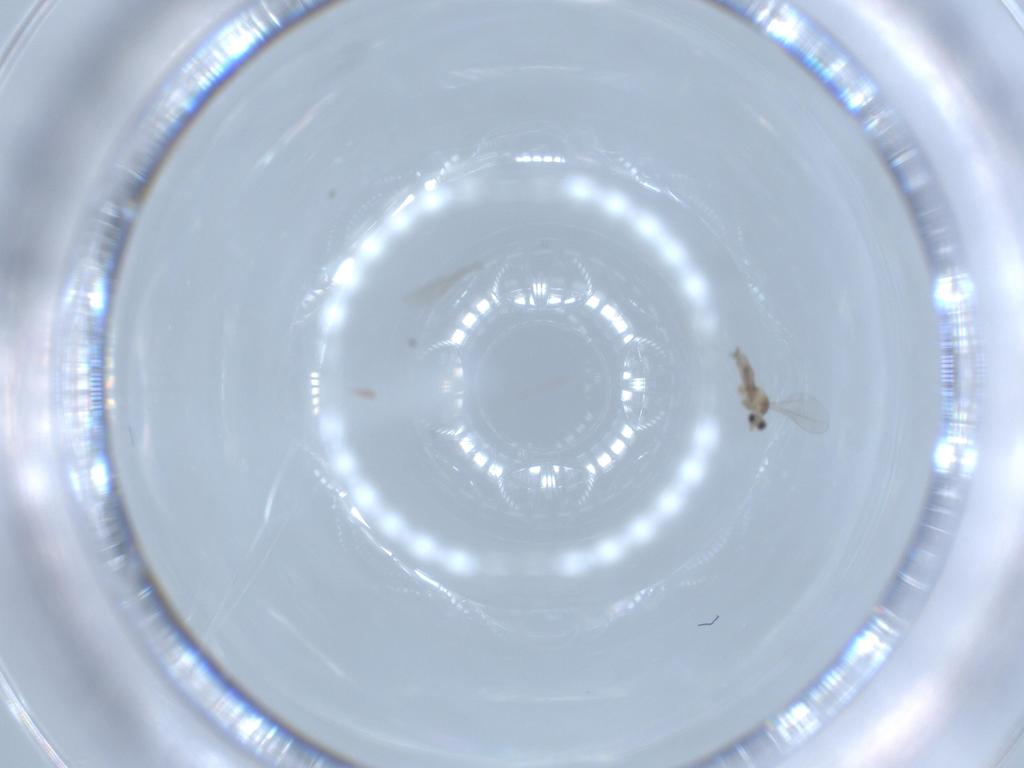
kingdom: Animalia
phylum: Arthropoda
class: Insecta
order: Diptera
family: Cecidomyiidae
